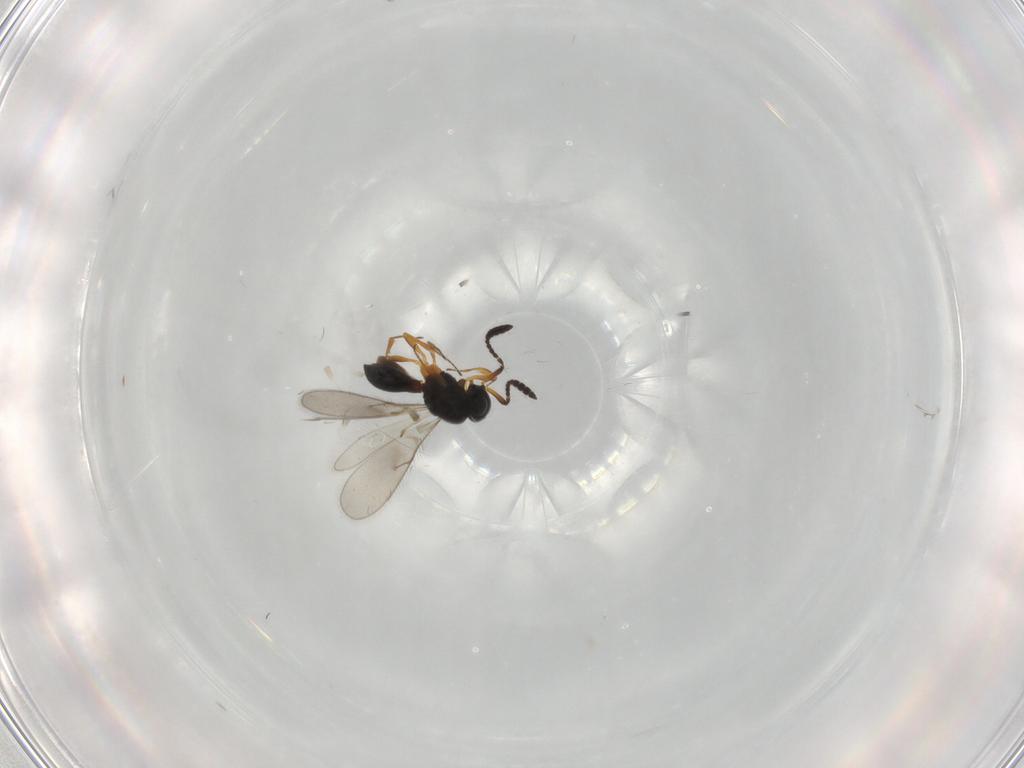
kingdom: Animalia
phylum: Arthropoda
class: Insecta
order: Hymenoptera
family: Scelionidae
